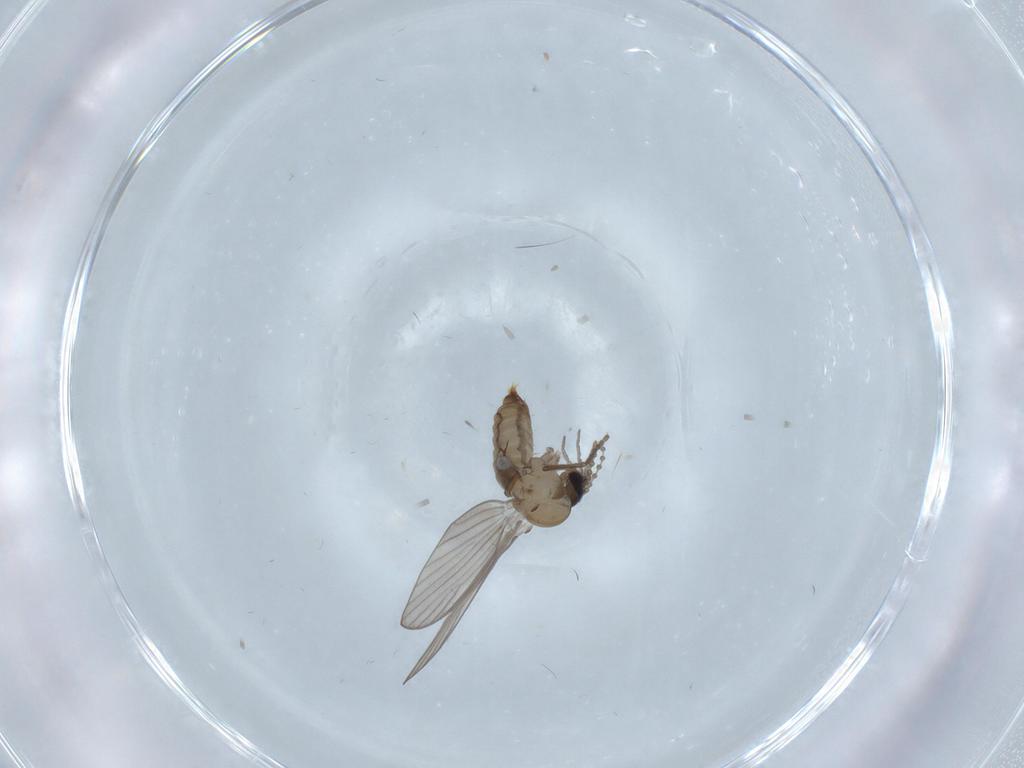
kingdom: Animalia
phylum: Arthropoda
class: Insecta
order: Diptera
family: Psychodidae
